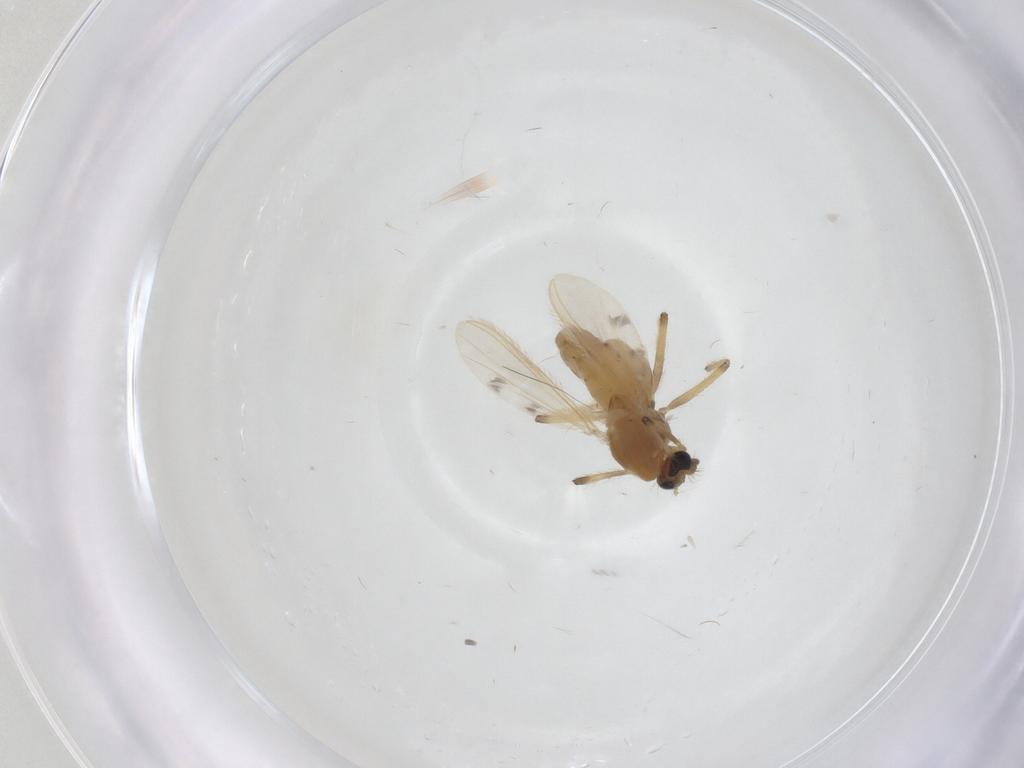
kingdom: Animalia
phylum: Arthropoda
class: Insecta
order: Diptera
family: Chironomidae
